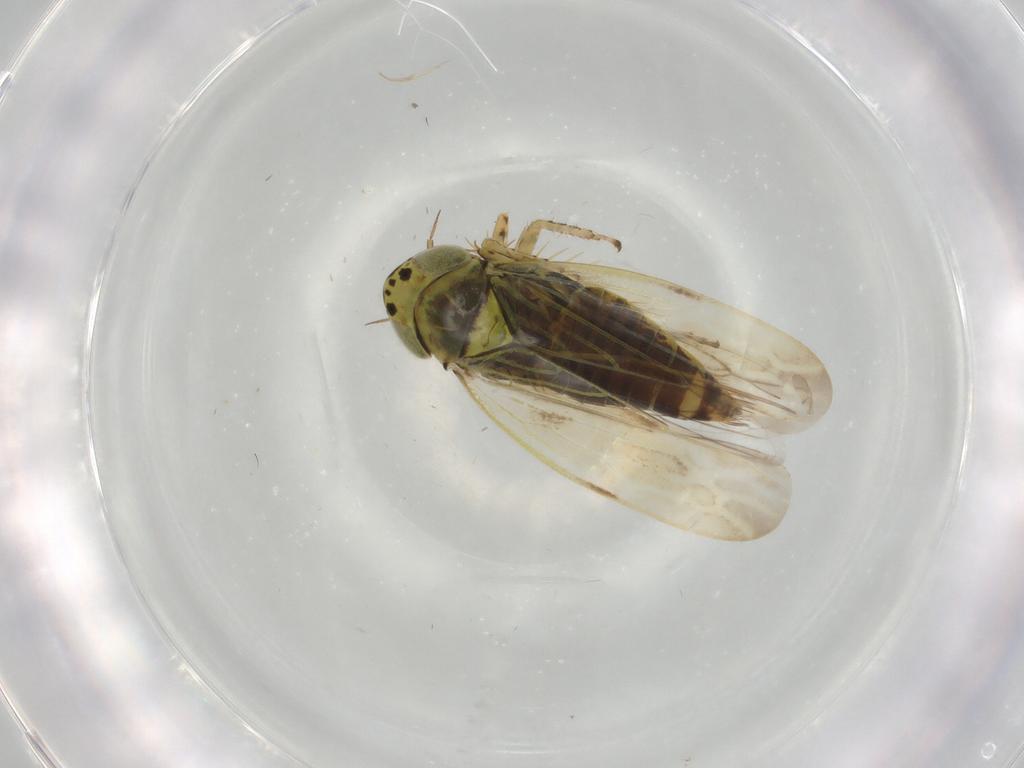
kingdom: Animalia
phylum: Arthropoda
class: Insecta
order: Hemiptera
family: Cicadellidae
